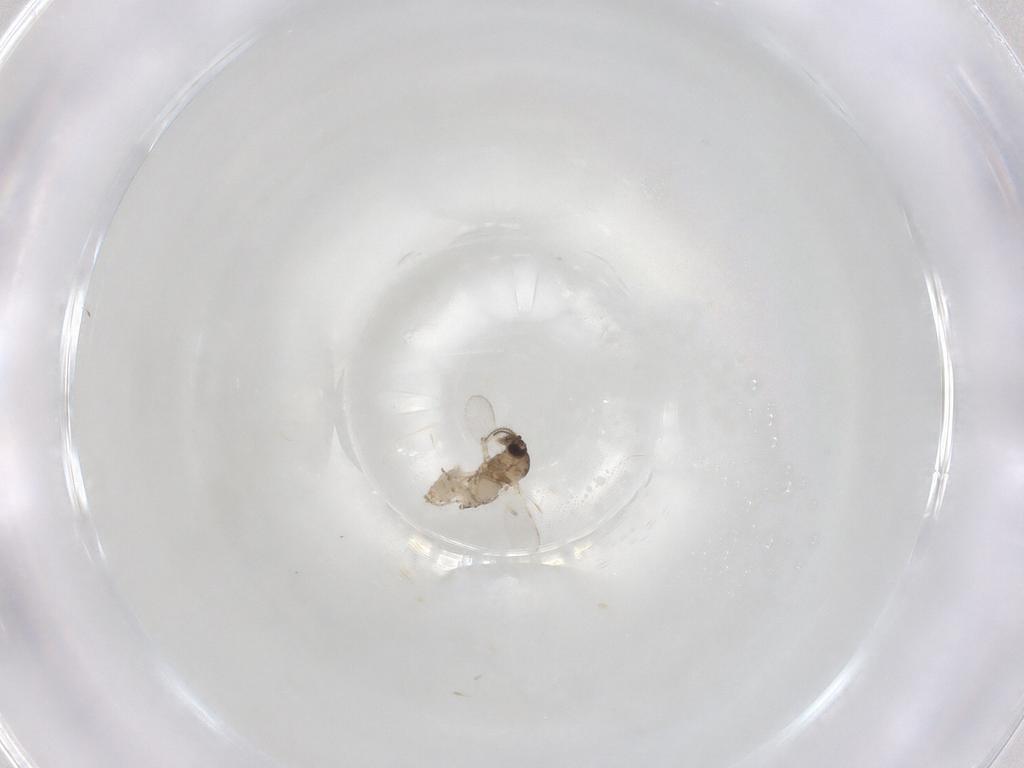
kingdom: Animalia
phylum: Arthropoda
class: Insecta
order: Diptera
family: Ceratopogonidae
